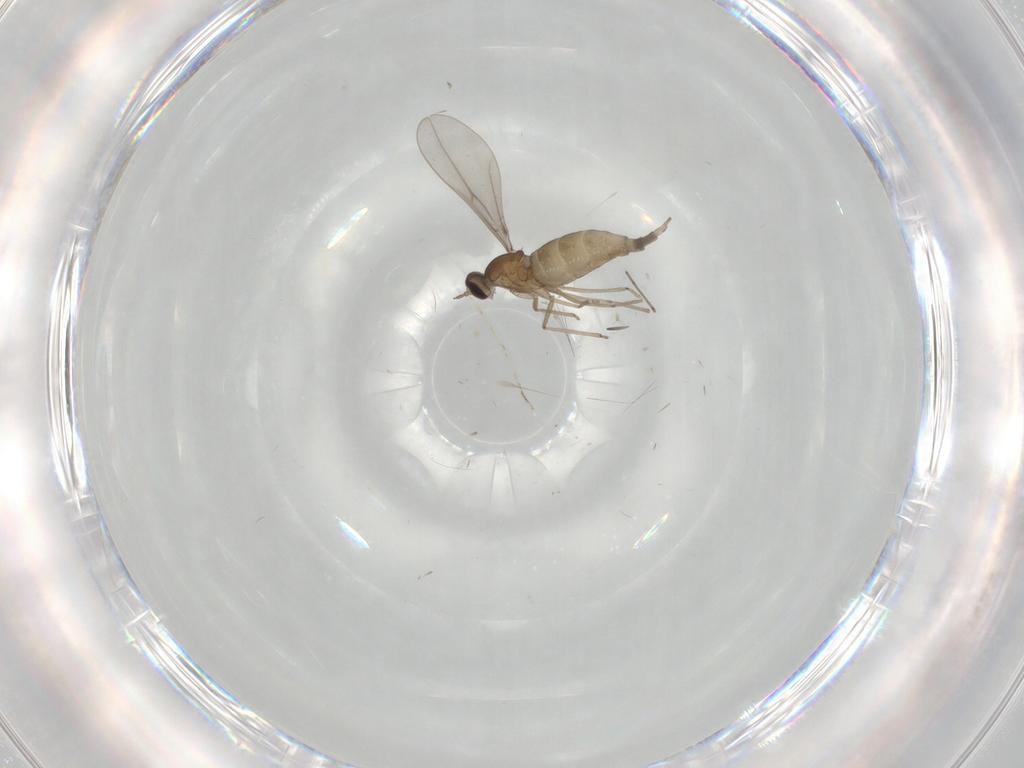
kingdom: Animalia
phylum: Arthropoda
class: Insecta
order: Diptera
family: Cecidomyiidae
